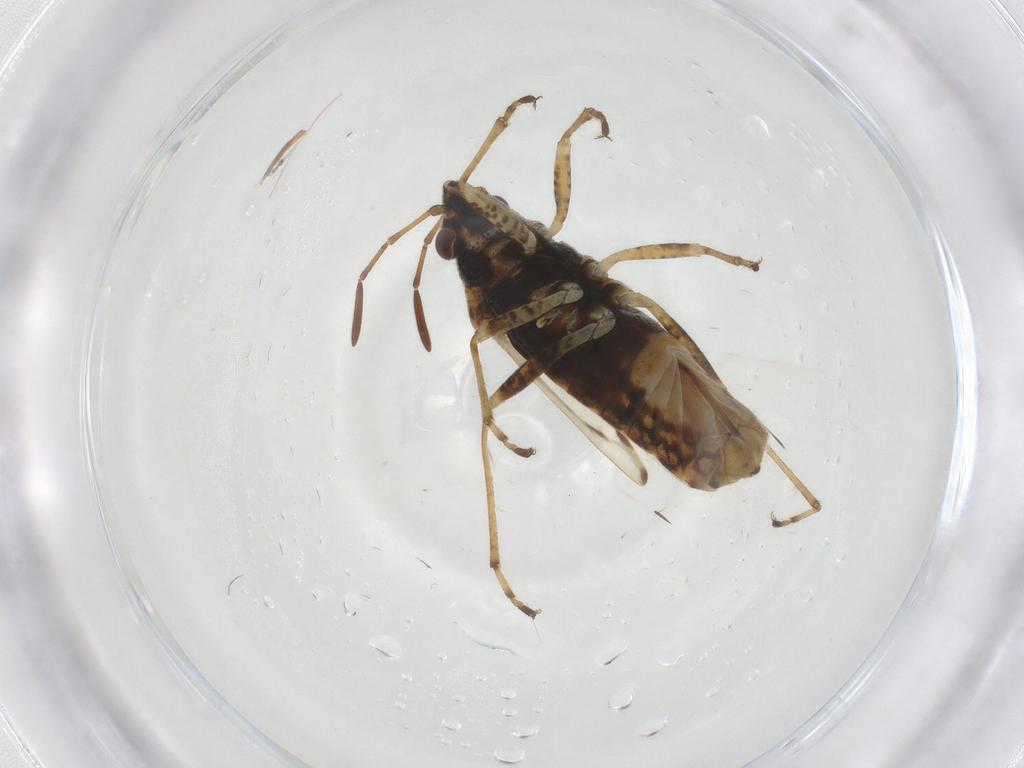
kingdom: Animalia
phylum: Arthropoda
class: Insecta
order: Hemiptera
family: Lygaeidae
